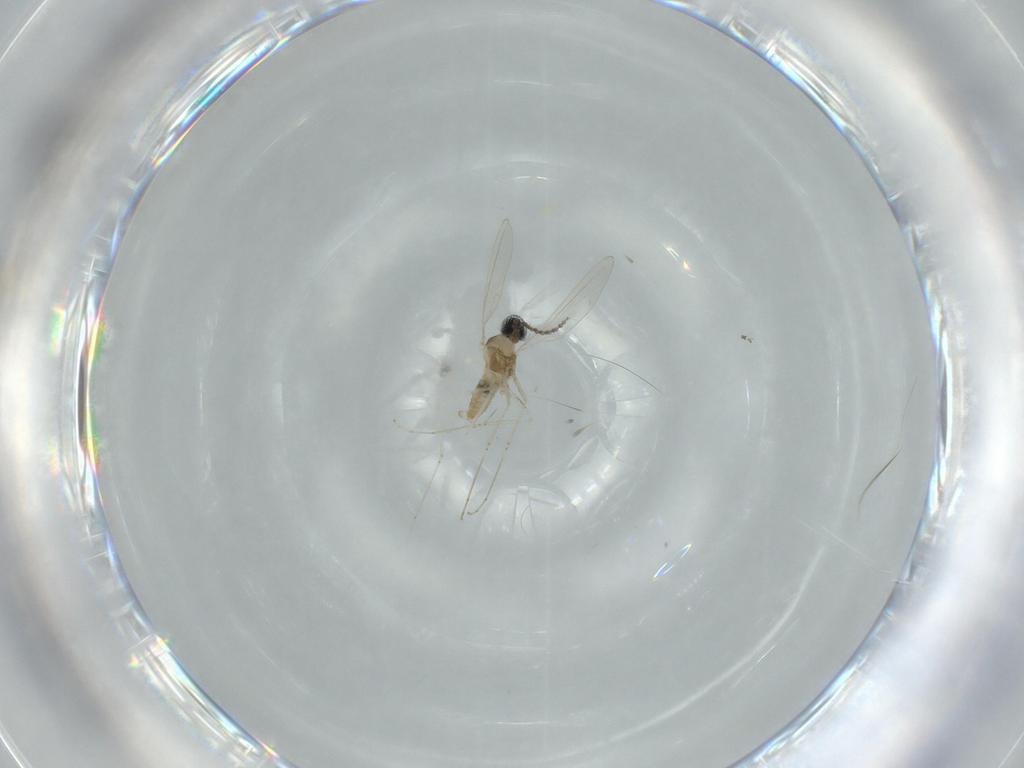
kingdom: Animalia
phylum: Arthropoda
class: Insecta
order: Diptera
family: Cecidomyiidae
